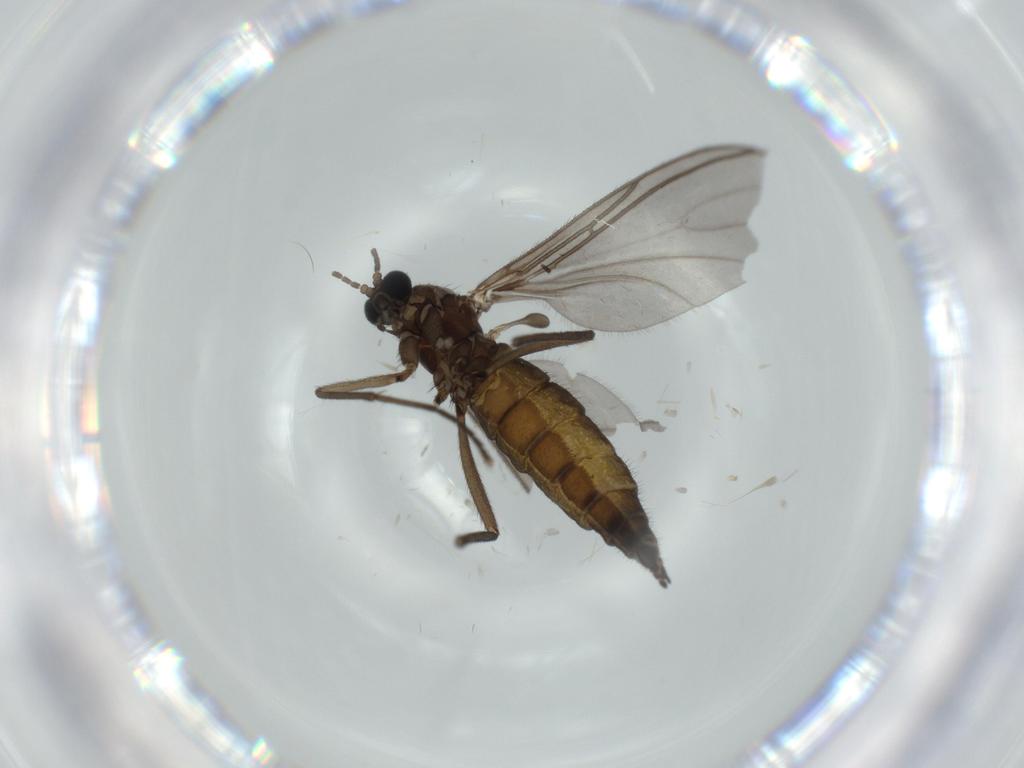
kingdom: Animalia
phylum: Arthropoda
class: Insecta
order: Diptera
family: Sciaridae
